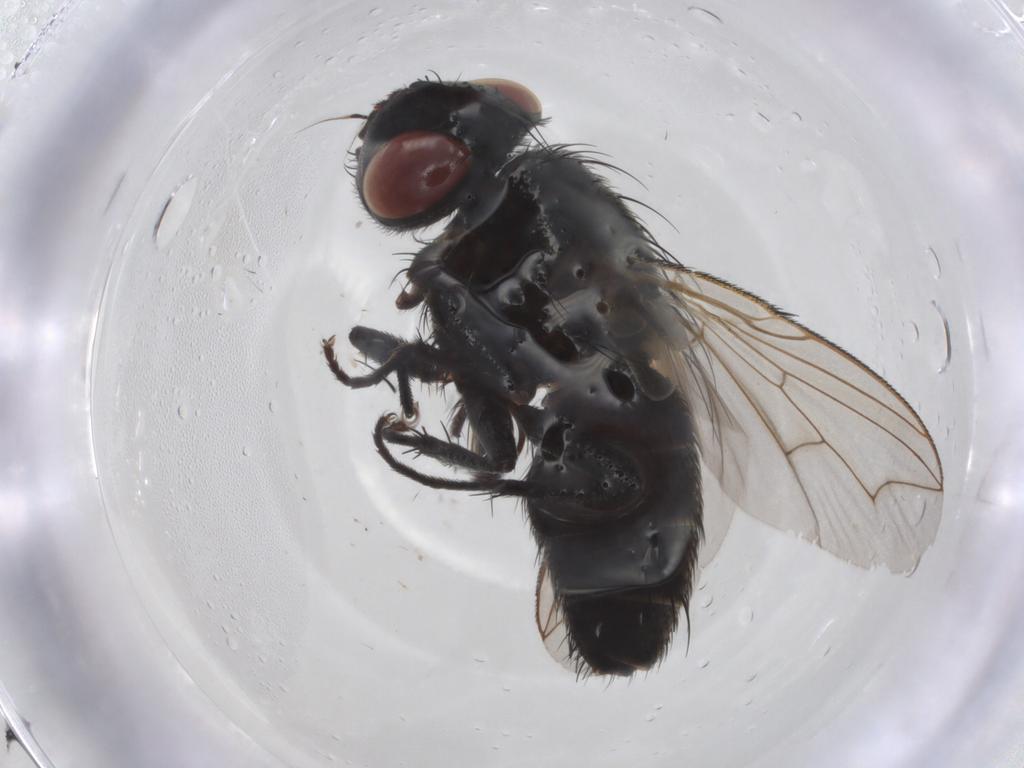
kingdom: Animalia
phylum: Arthropoda
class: Insecta
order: Diptera
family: Sarcophagidae
